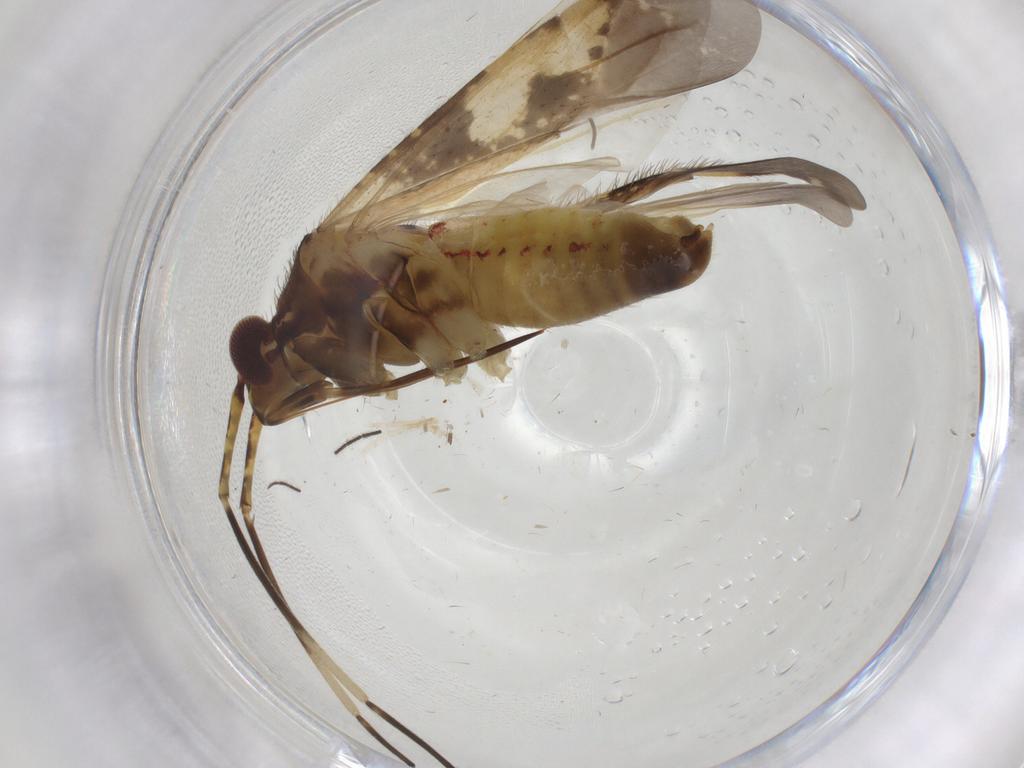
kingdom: Animalia
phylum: Arthropoda
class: Insecta
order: Hemiptera
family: Miridae
